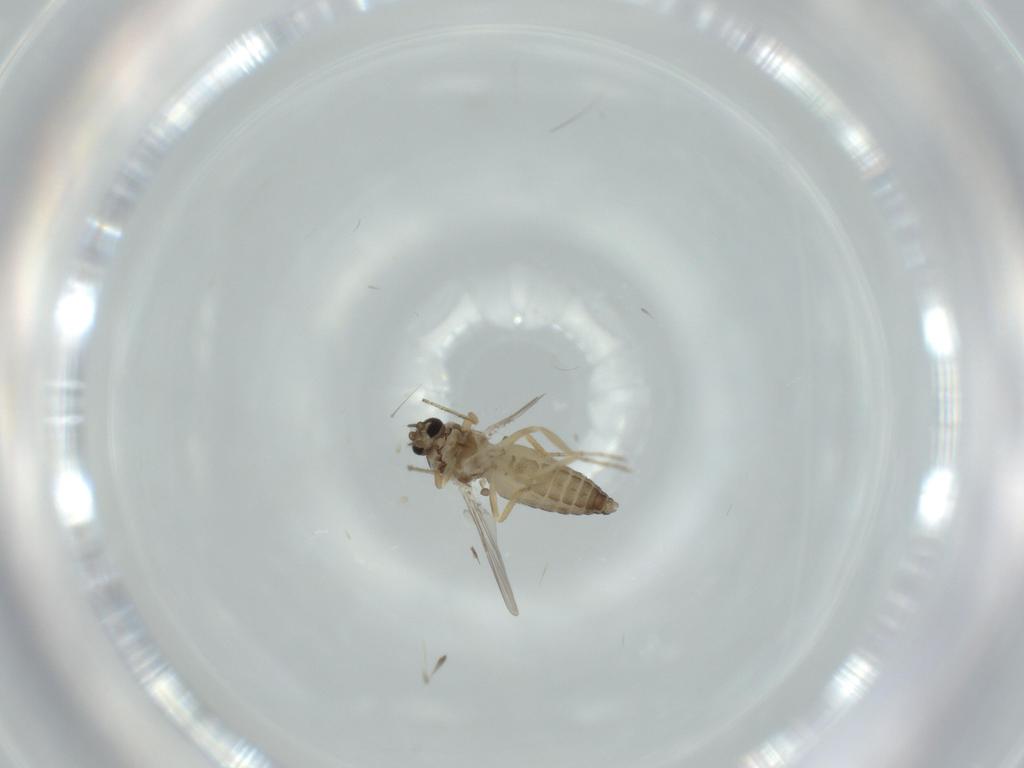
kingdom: Animalia
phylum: Arthropoda
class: Insecta
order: Diptera
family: Ceratopogonidae
